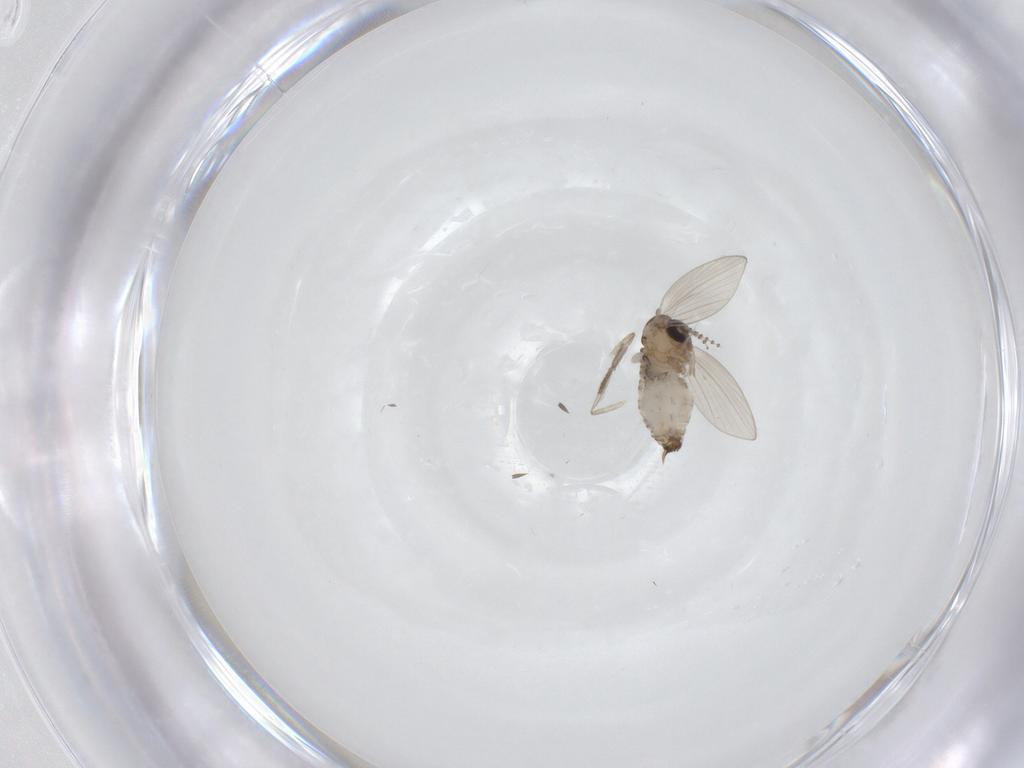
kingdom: Animalia
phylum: Arthropoda
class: Insecta
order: Diptera
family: Psychodidae
